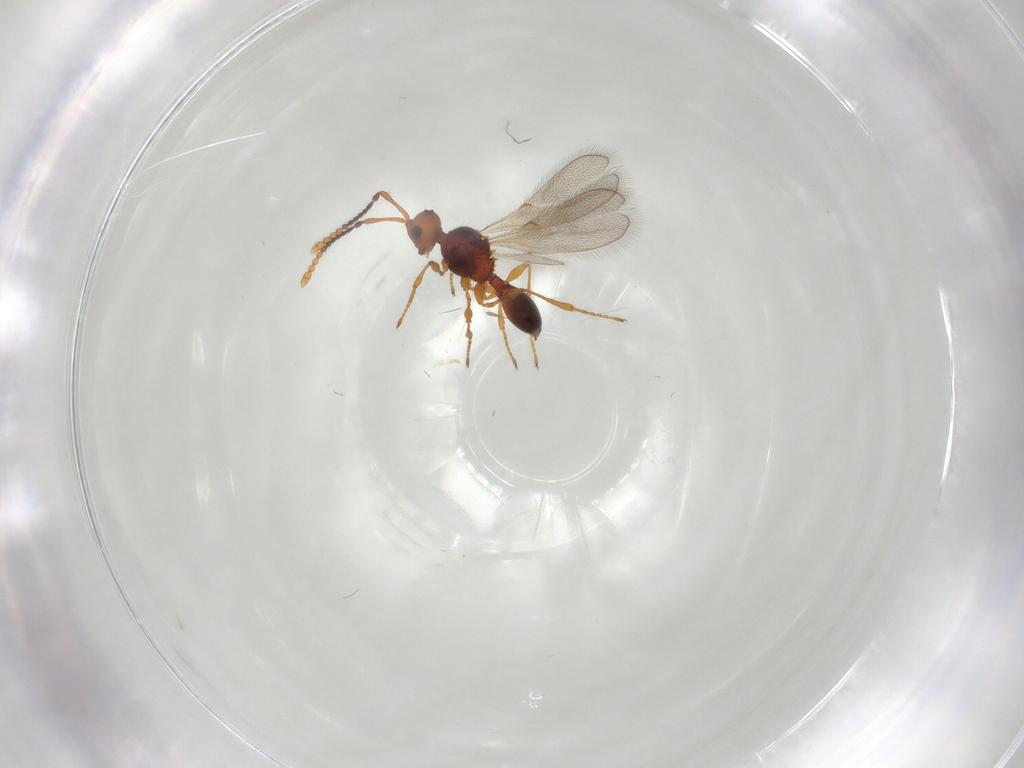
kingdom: Animalia
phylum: Arthropoda
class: Insecta
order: Hymenoptera
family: Diapriidae
